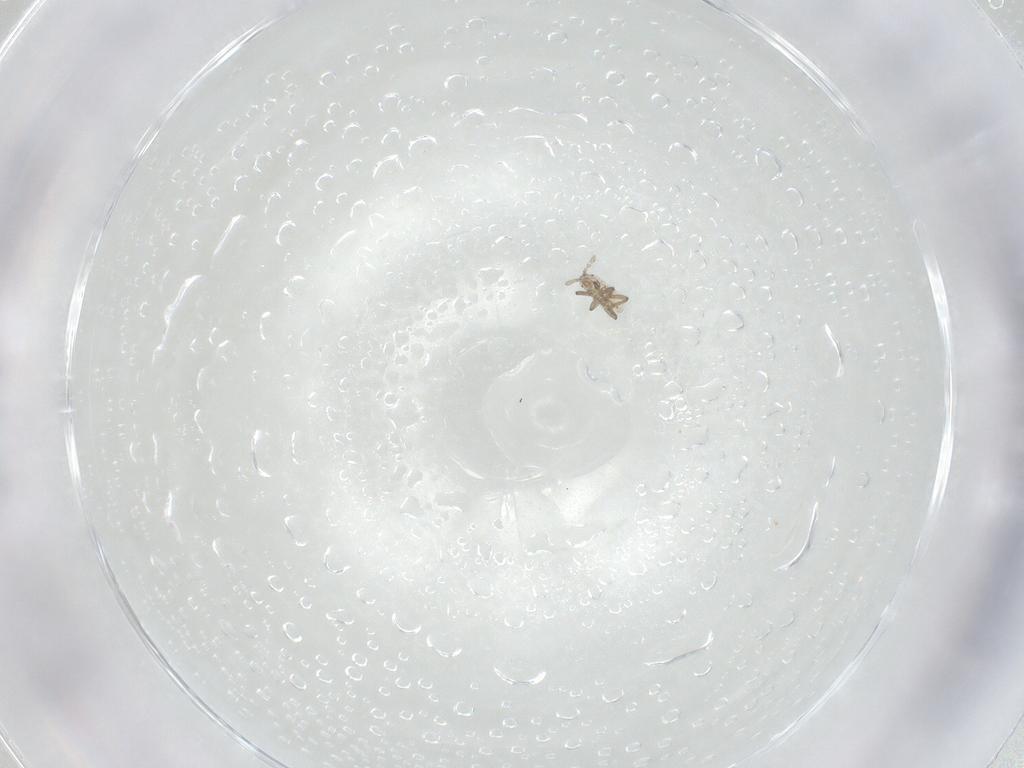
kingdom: Animalia
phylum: Arthropoda
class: Insecta
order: Hemiptera
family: Aphididae
